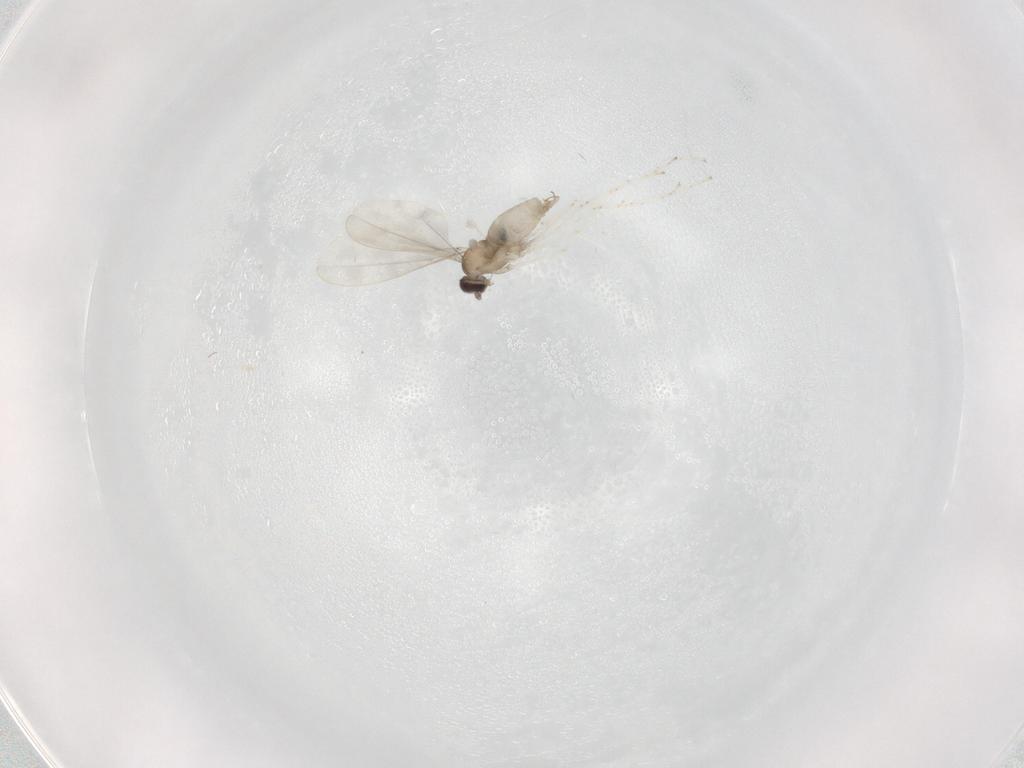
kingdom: Animalia
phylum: Arthropoda
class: Insecta
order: Diptera
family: Cecidomyiidae
